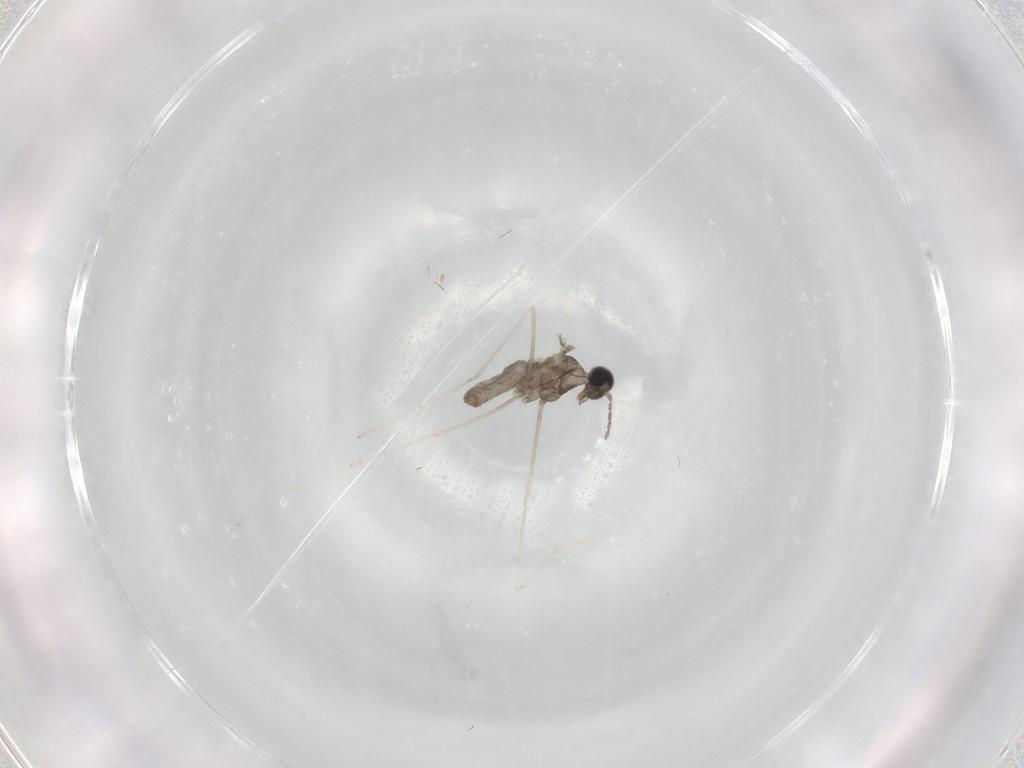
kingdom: Animalia
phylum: Arthropoda
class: Insecta
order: Diptera
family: Cecidomyiidae
